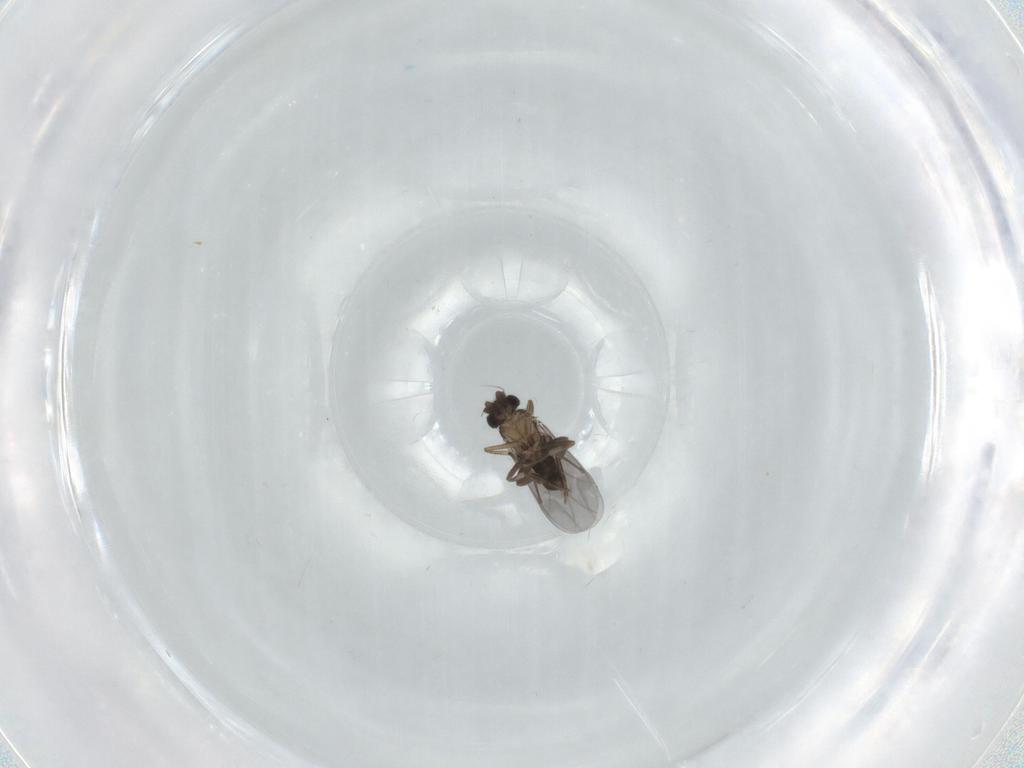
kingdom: Animalia
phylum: Arthropoda
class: Insecta
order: Diptera
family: Phoridae
